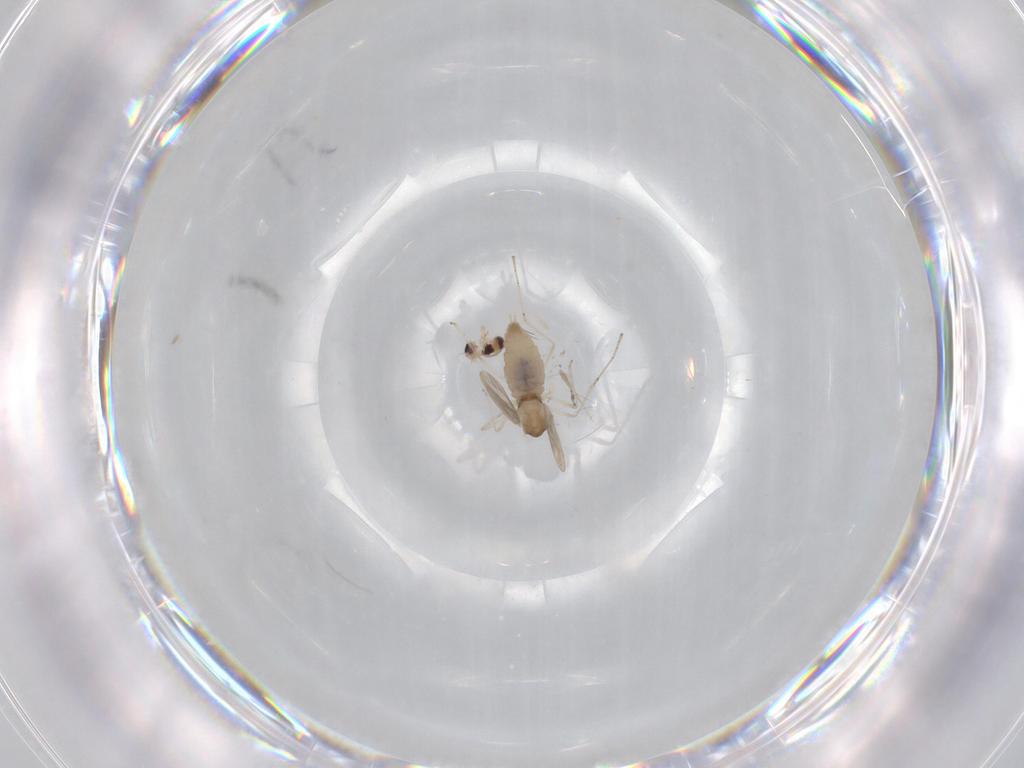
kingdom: Animalia
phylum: Arthropoda
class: Insecta
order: Diptera
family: Cecidomyiidae
